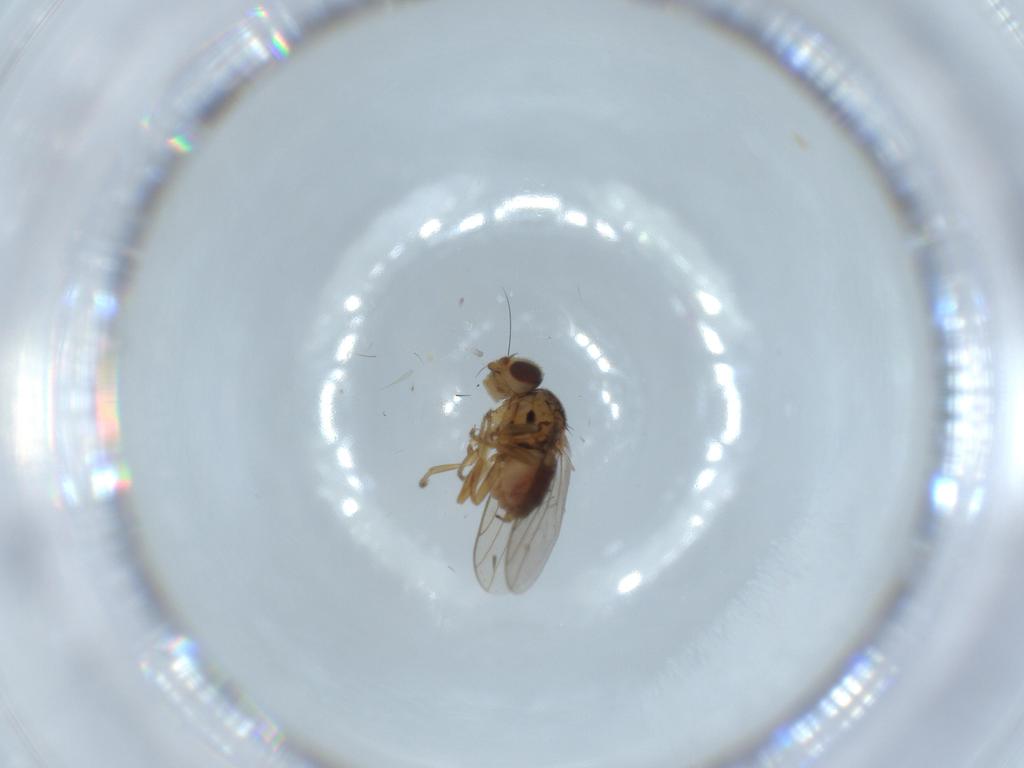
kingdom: Animalia
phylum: Arthropoda
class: Insecta
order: Diptera
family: Chloropidae
